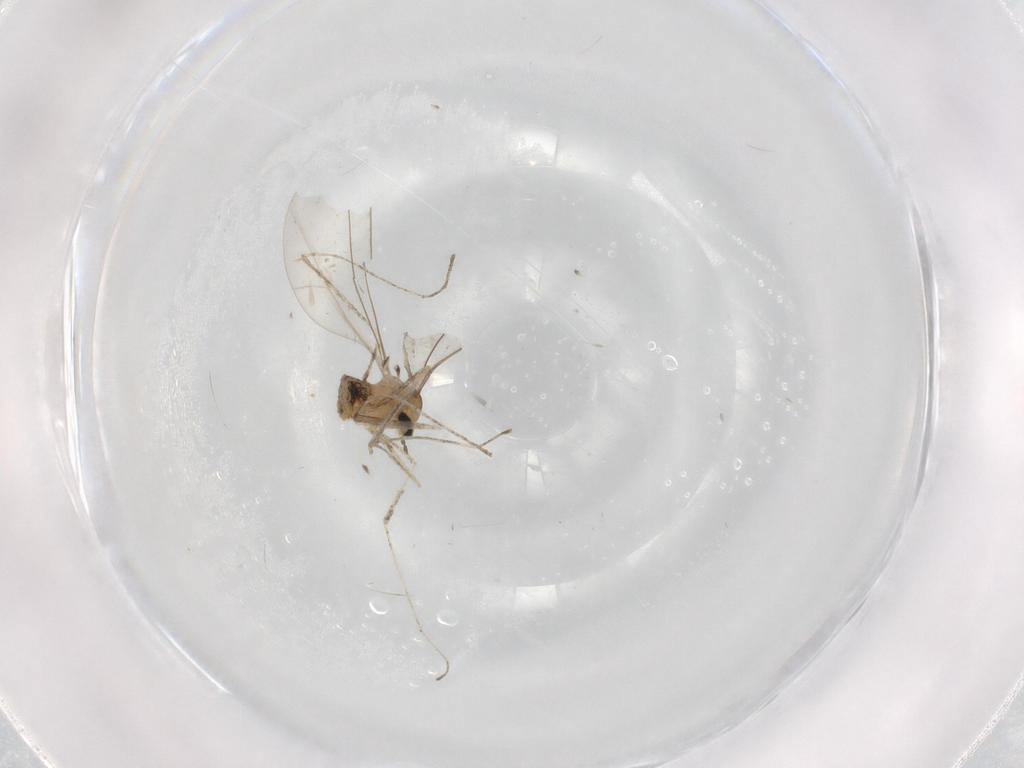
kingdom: Animalia
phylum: Arthropoda
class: Insecta
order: Diptera
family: Cecidomyiidae
